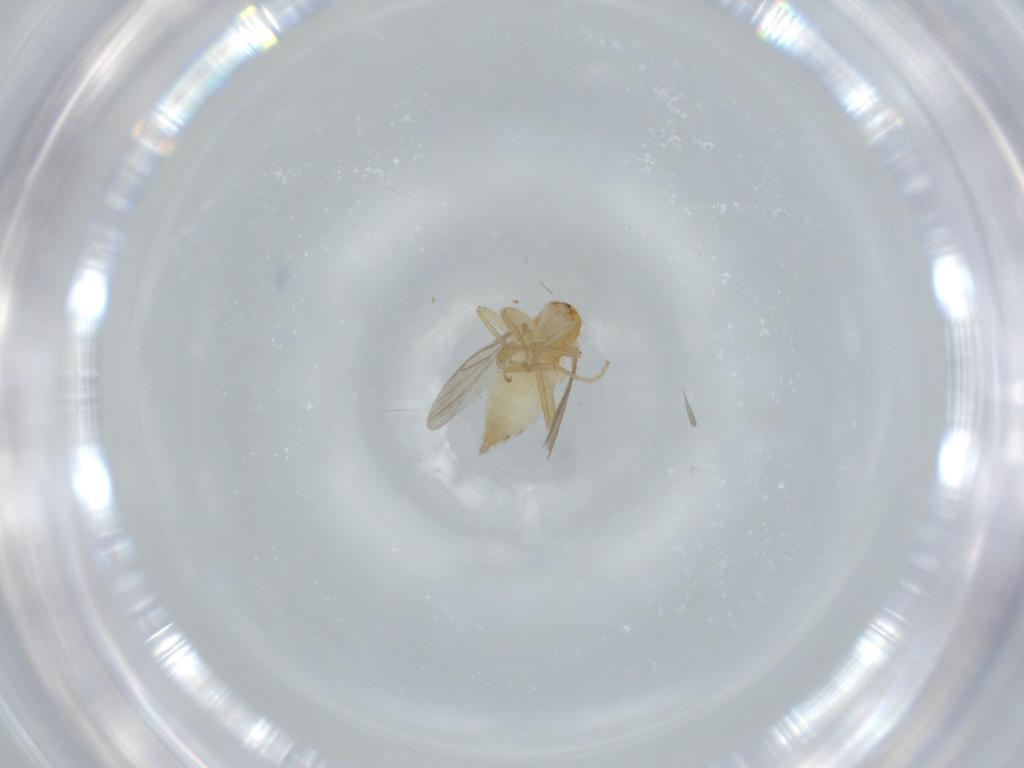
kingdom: Animalia
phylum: Arthropoda
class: Insecta
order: Diptera
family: Hybotidae
